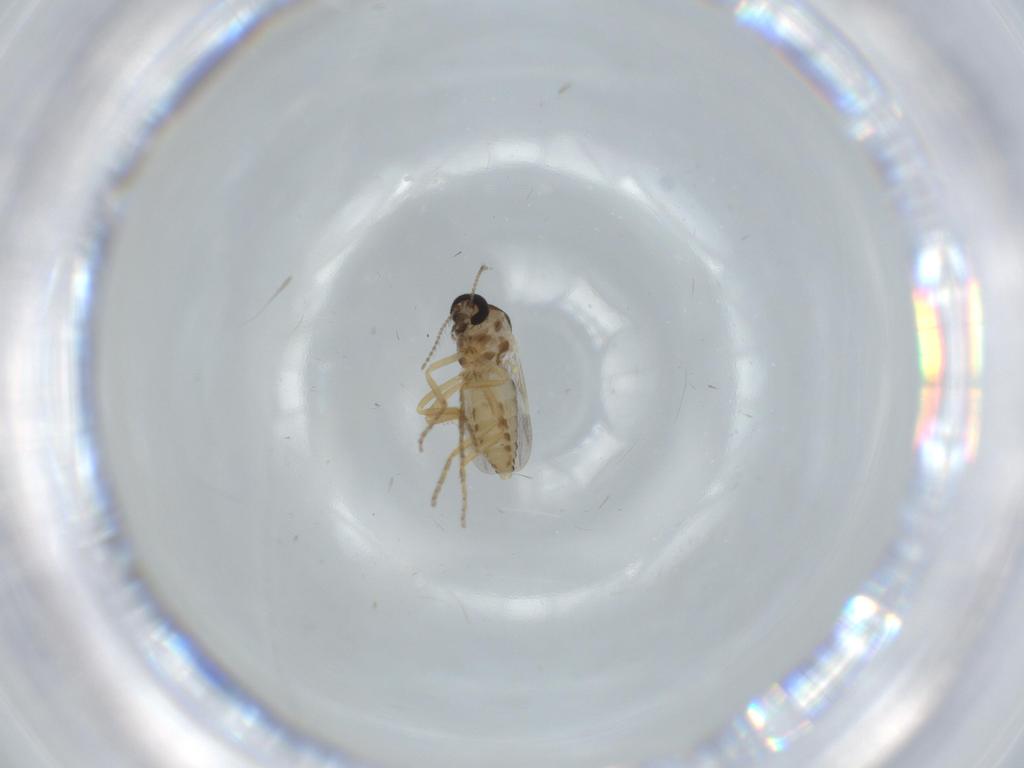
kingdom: Animalia
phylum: Arthropoda
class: Insecta
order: Diptera
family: Ceratopogonidae
